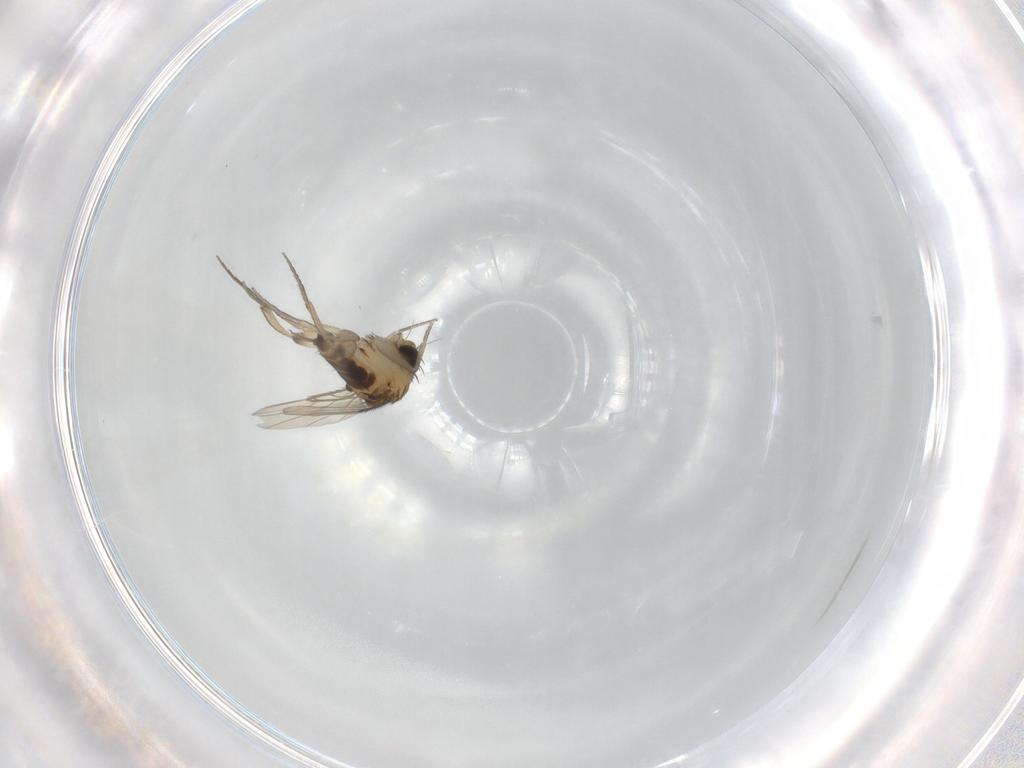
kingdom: Animalia
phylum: Arthropoda
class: Insecta
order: Diptera
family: Phoridae
